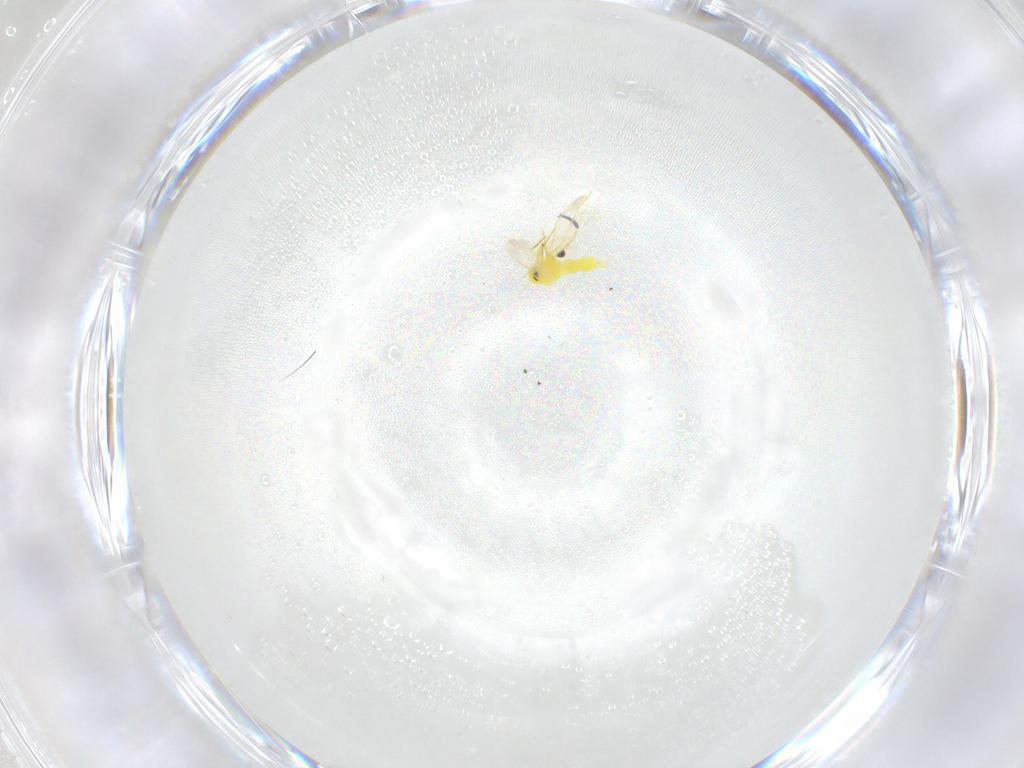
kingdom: Animalia
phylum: Arthropoda
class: Insecta
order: Hemiptera
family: Aleyrodidae
